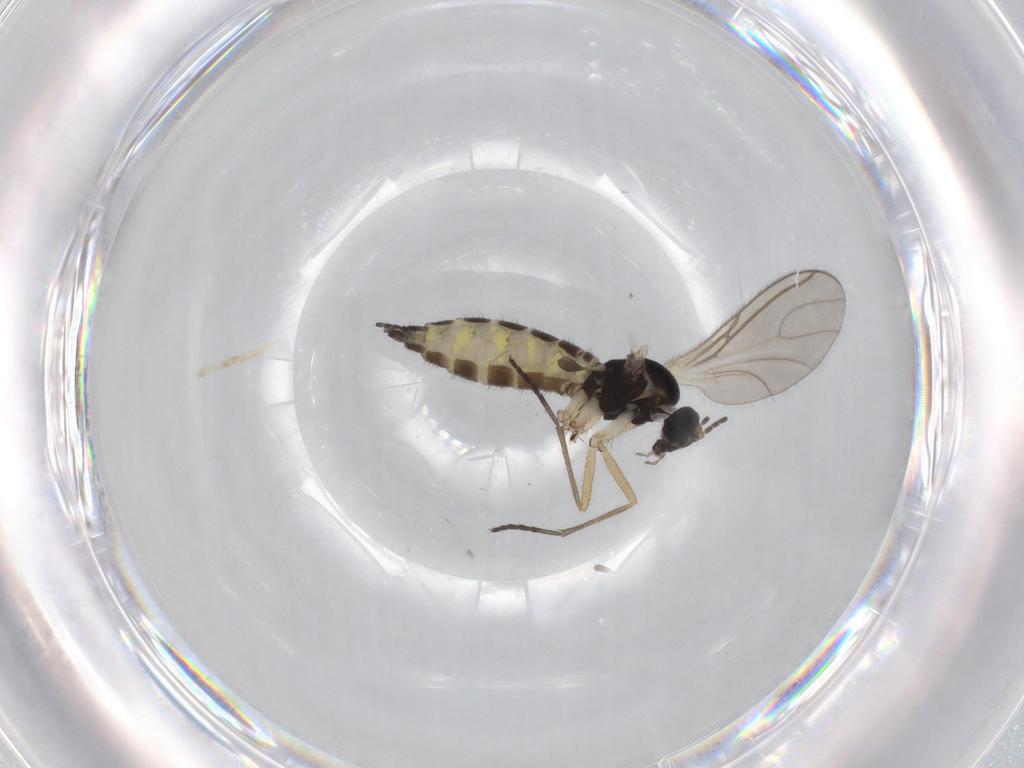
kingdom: Animalia
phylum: Arthropoda
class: Insecta
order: Diptera
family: Sciaridae
